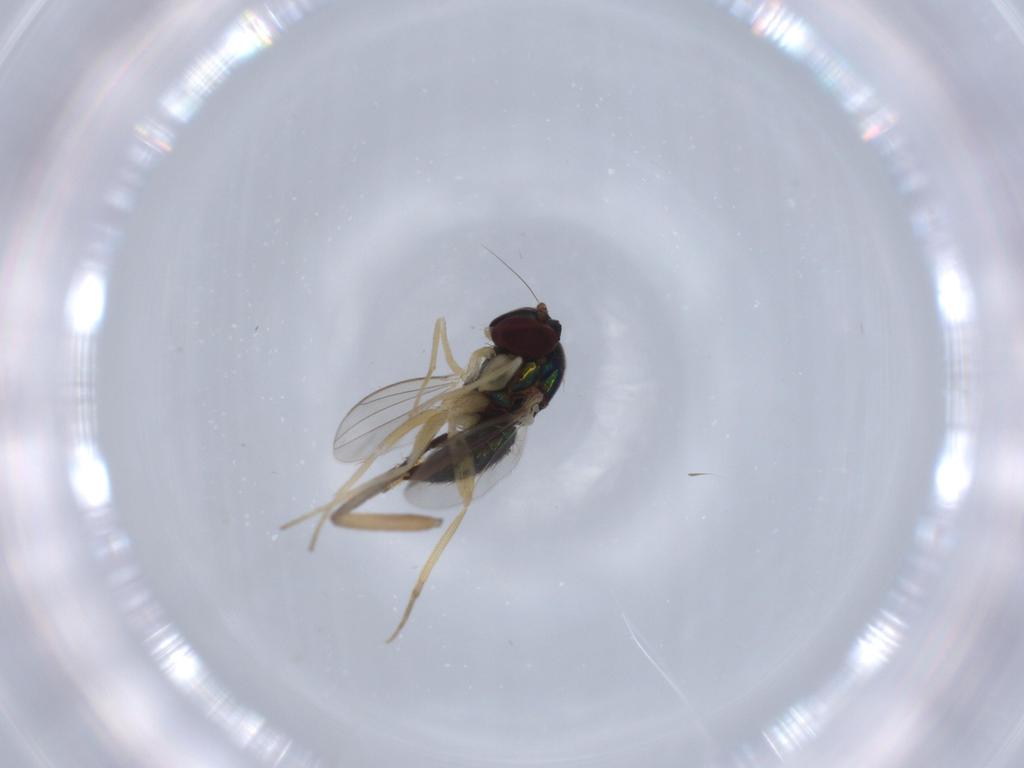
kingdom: Animalia
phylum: Arthropoda
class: Insecta
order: Diptera
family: Dolichopodidae
